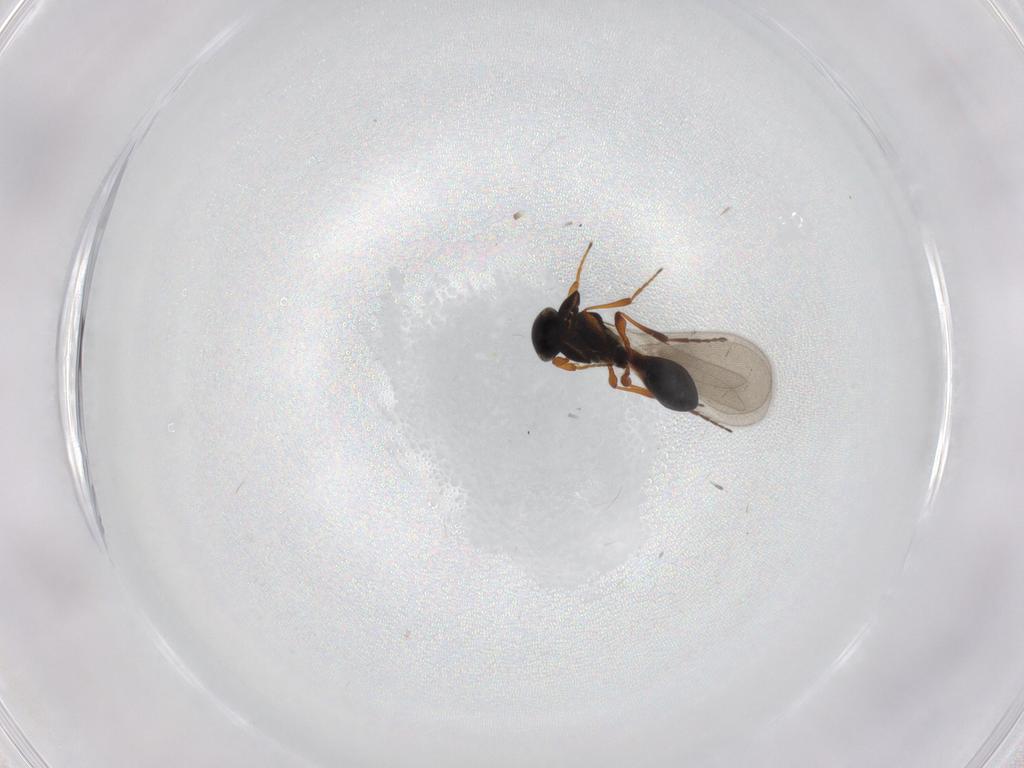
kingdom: Animalia
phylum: Arthropoda
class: Insecta
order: Hymenoptera
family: Platygastridae
